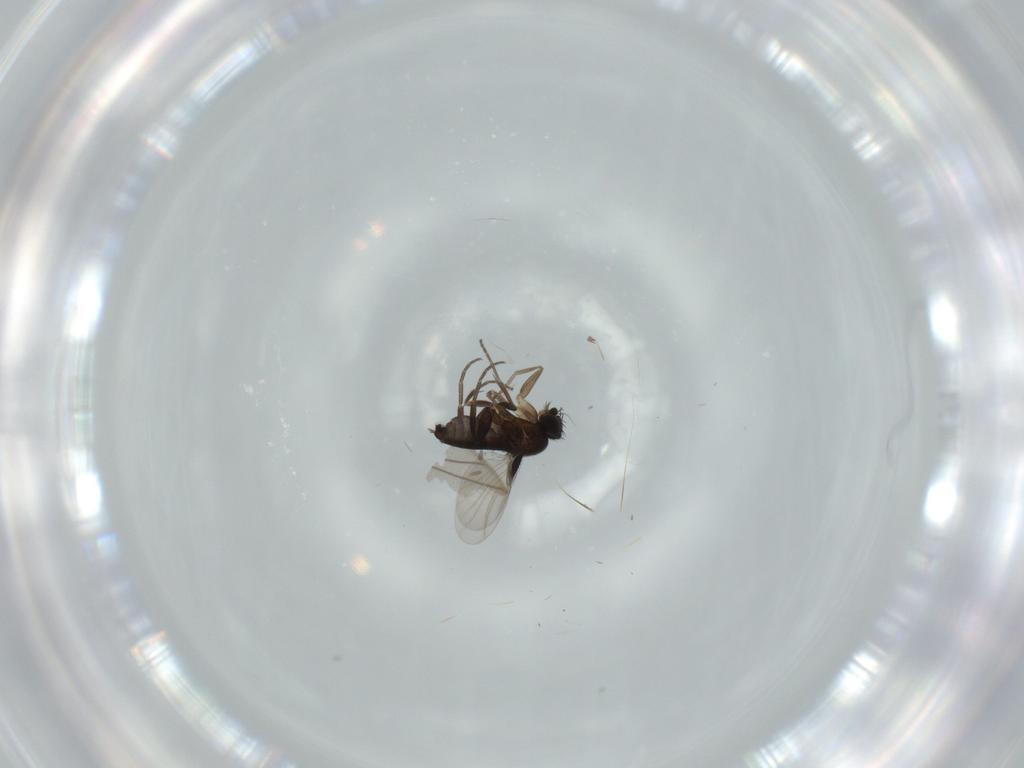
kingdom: Animalia
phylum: Arthropoda
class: Insecta
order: Diptera
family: Phoridae
